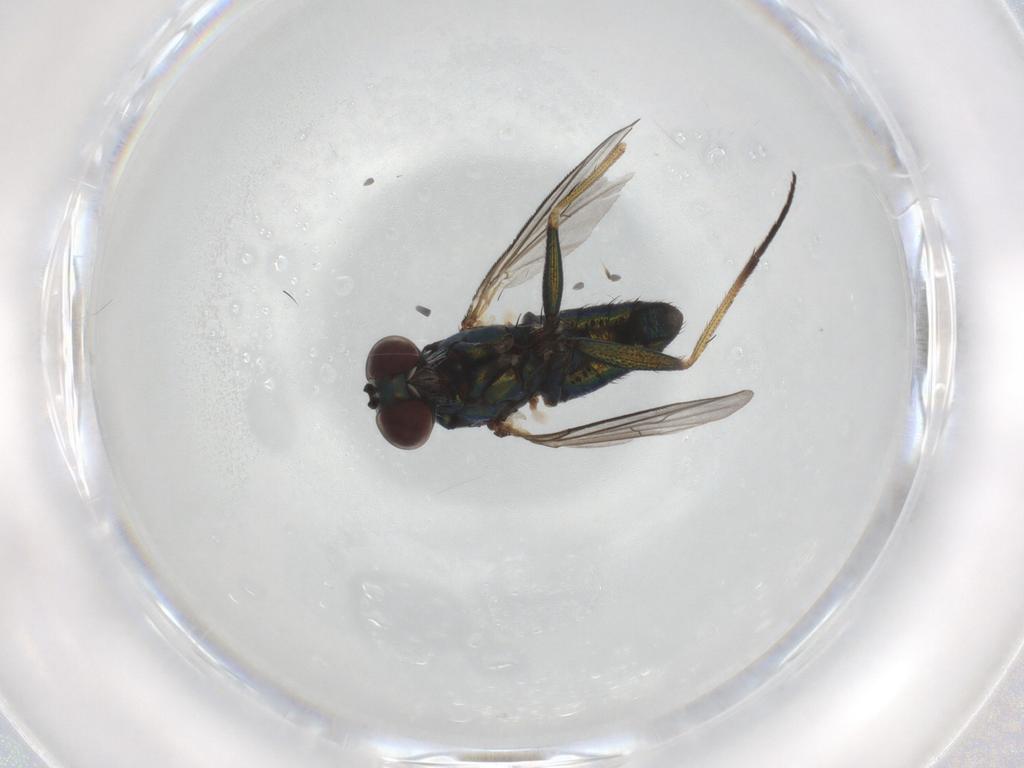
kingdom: Animalia
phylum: Arthropoda
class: Insecta
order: Diptera
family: Dolichopodidae
